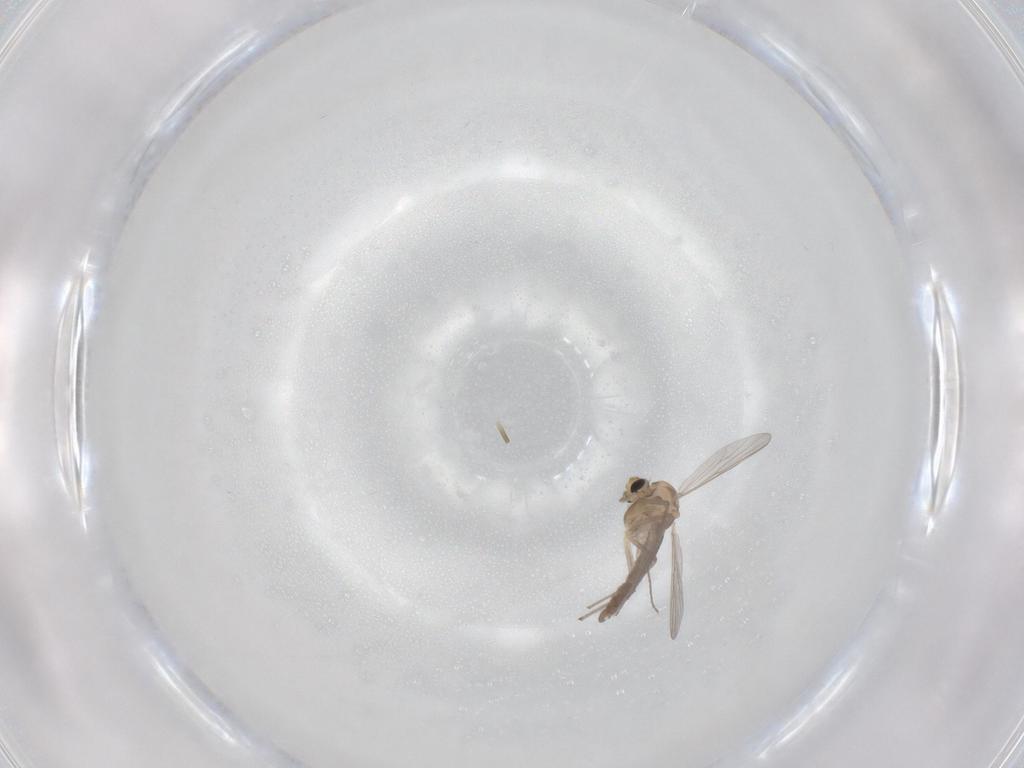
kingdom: Animalia
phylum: Arthropoda
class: Insecta
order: Diptera
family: Chironomidae
